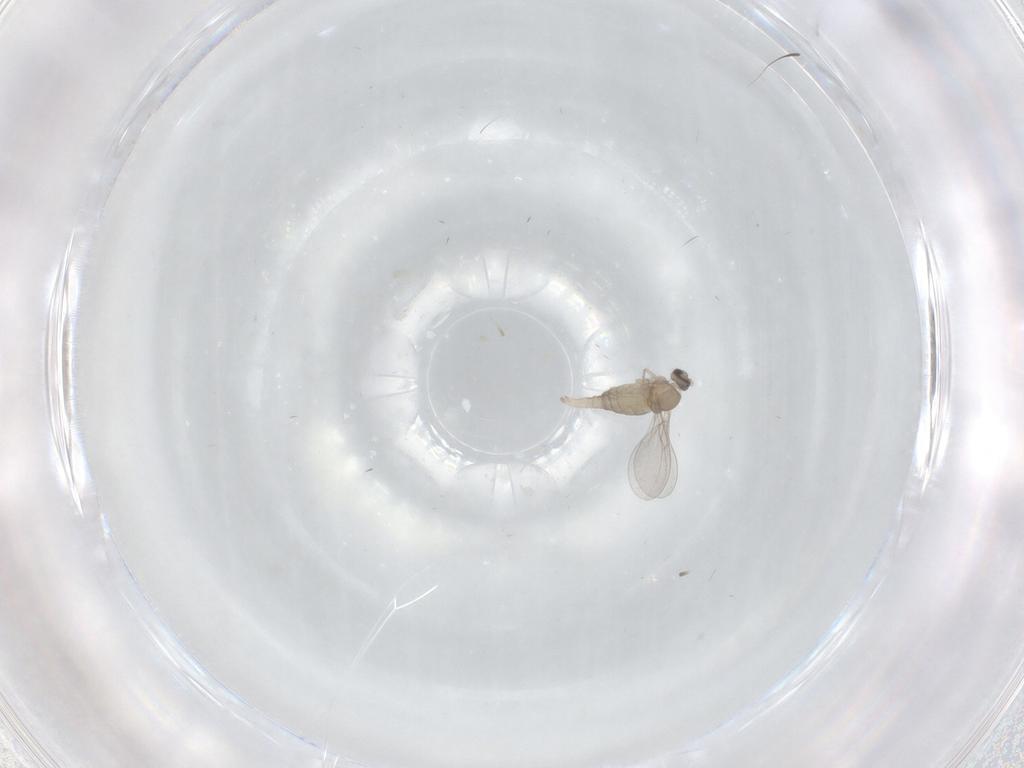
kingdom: Animalia
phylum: Arthropoda
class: Insecta
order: Diptera
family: Cecidomyiidae
